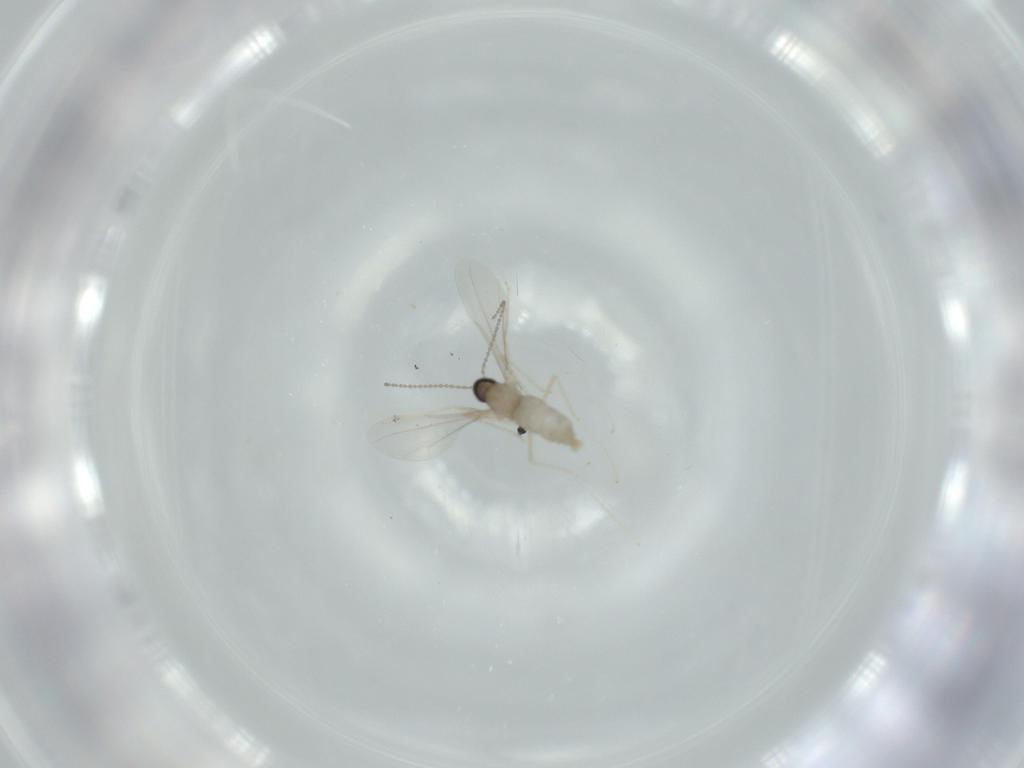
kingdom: Animalia
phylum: Arthropoda
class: Insecta
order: Diptera
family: Cecidomyiidae
